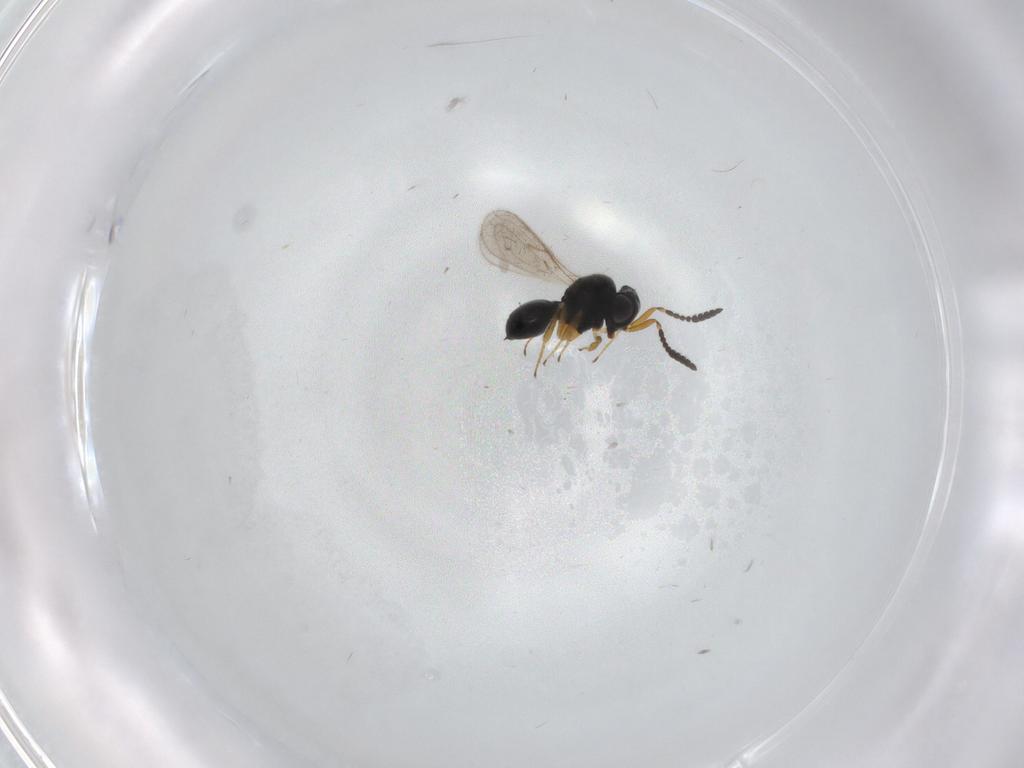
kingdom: Animalia
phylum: Arthropoda
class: Insecta
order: Hymenoptera
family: Scelionidae
